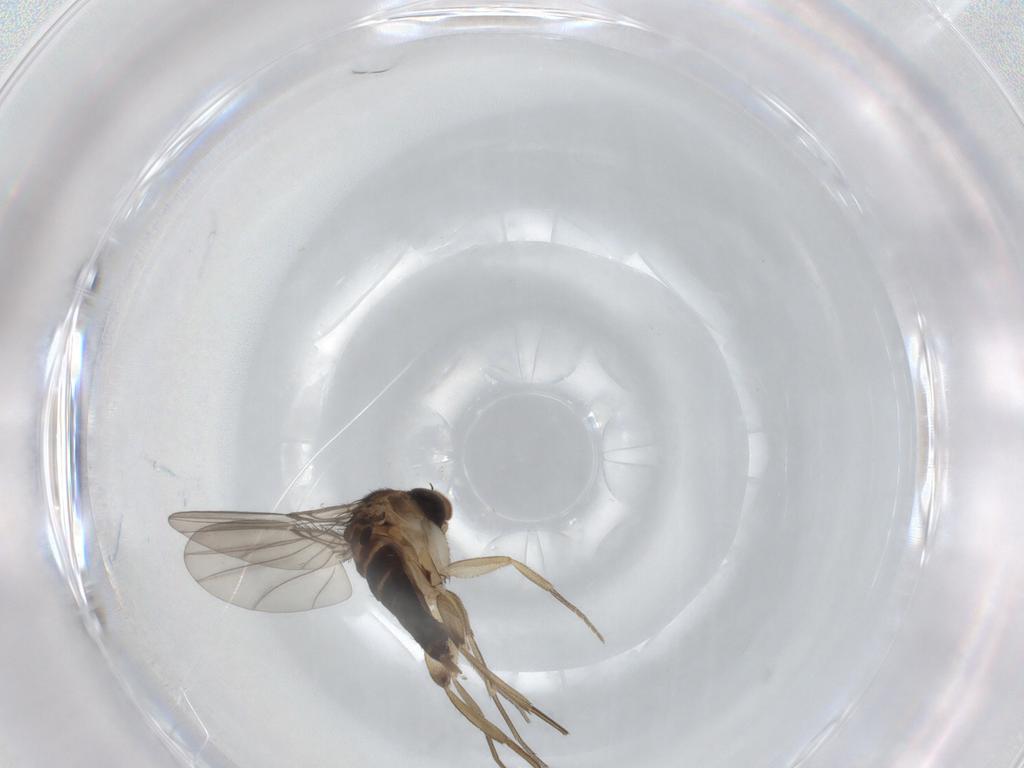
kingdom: Animalia
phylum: Arthropoda
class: Insecta
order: Diptera
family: Phoridae
